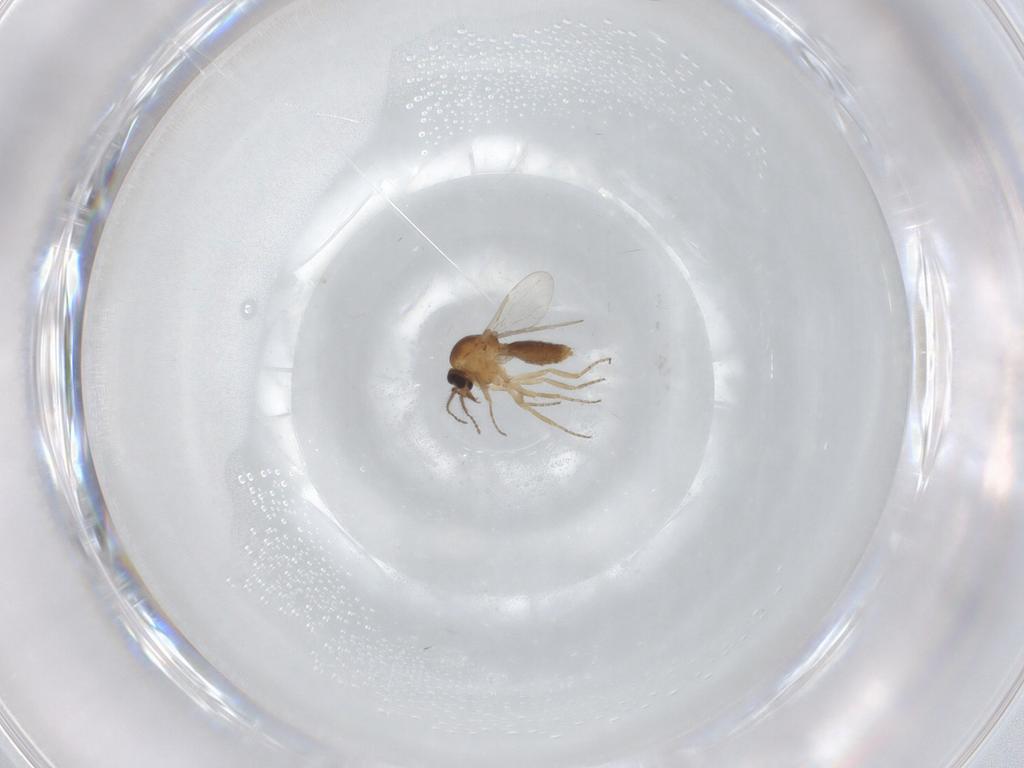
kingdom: Animalia
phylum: Arthropoda
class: Insecta
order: Diptera
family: Ceratopogonidae
